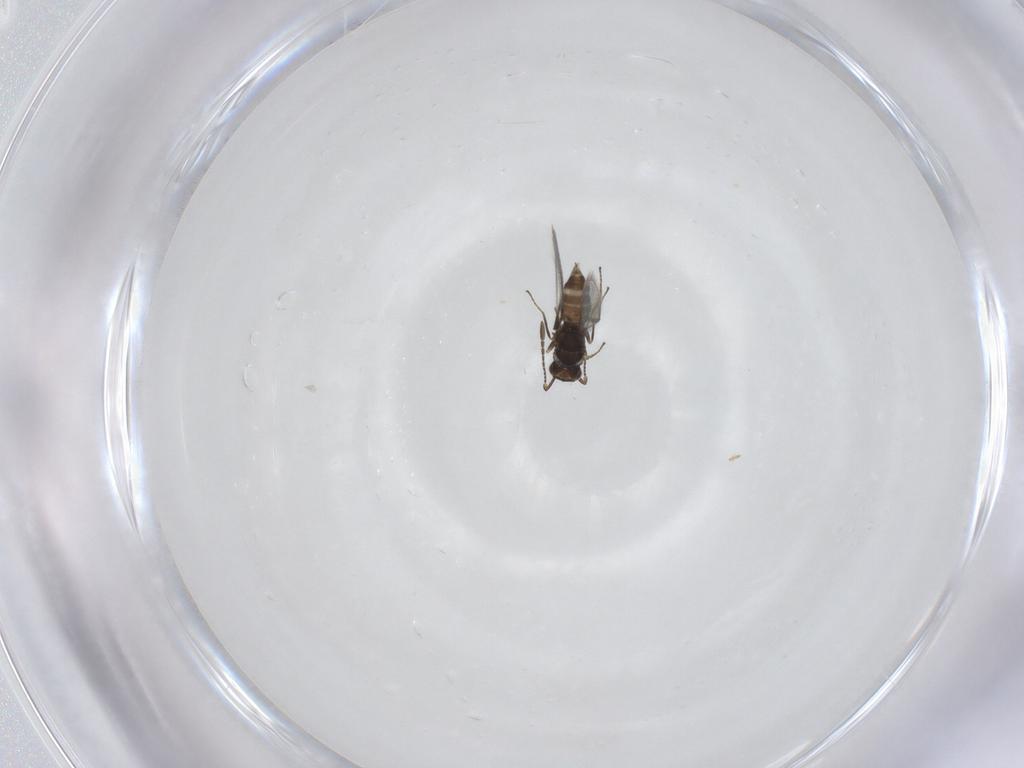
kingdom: Animalia
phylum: Arthropoda
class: Insecta
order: Hymenoptera
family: Mymaridae
